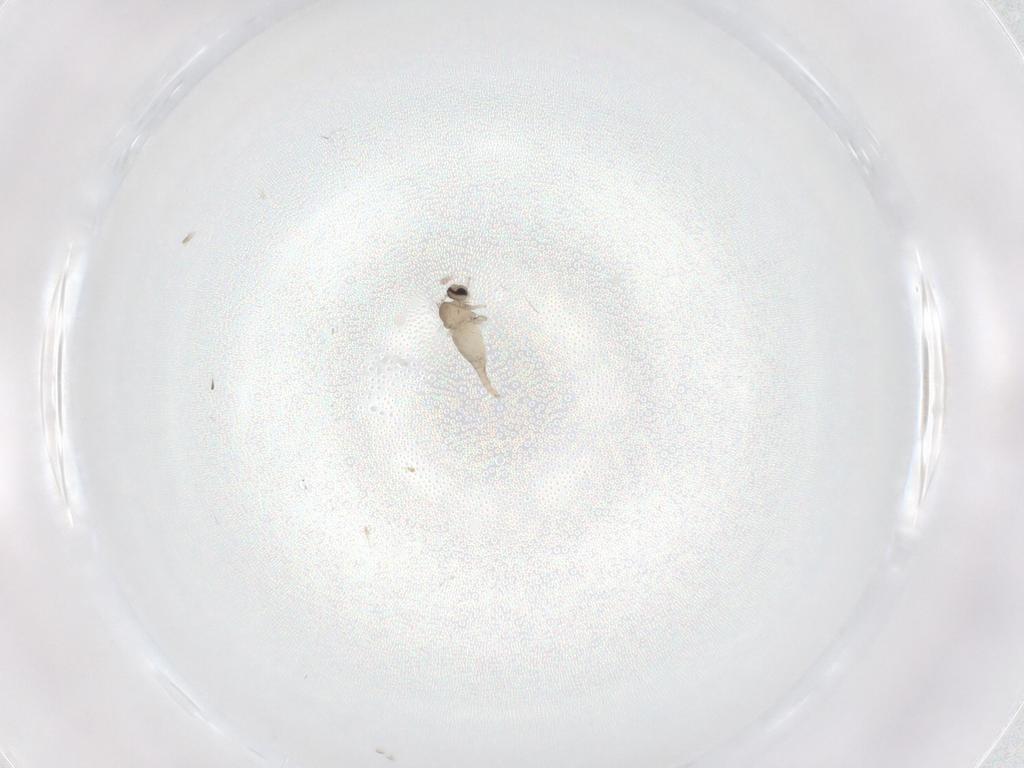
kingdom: Animalia
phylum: Arthropoda
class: Insecta
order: Diptera
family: Cecidomyiidae
